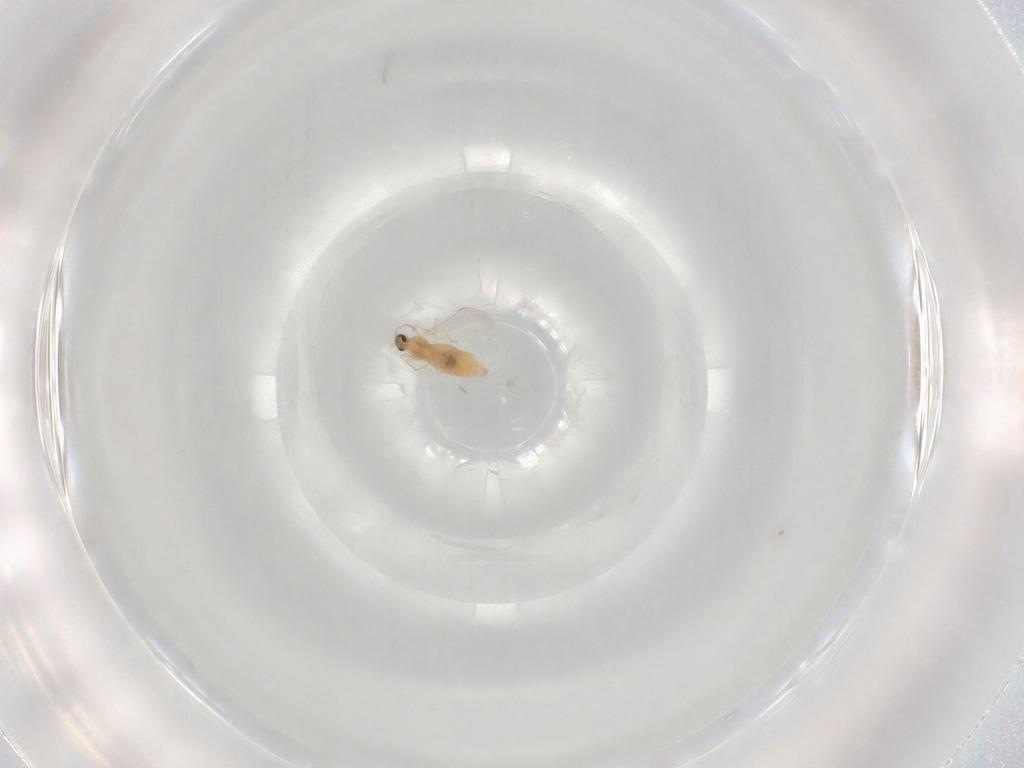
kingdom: Animalia
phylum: Arthropoda
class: Insecta
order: Diptera
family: Cecidomyiidae
